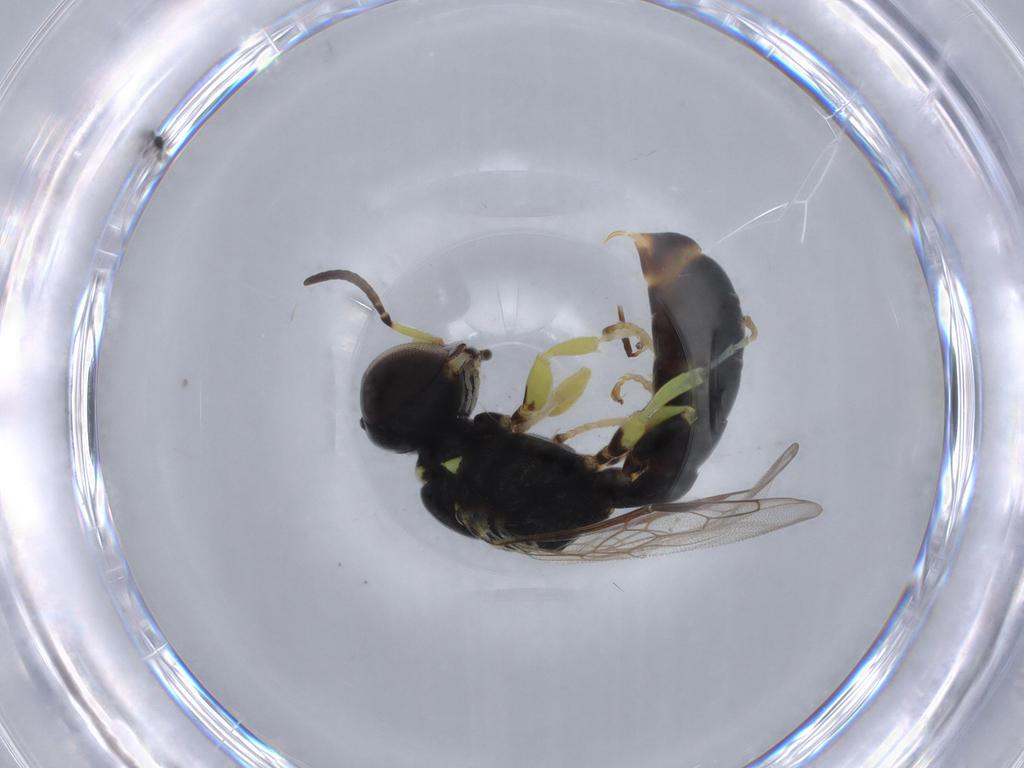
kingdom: Animalia
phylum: Arthropoda
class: Insecta
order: Hymenoptera
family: Crabronidae
